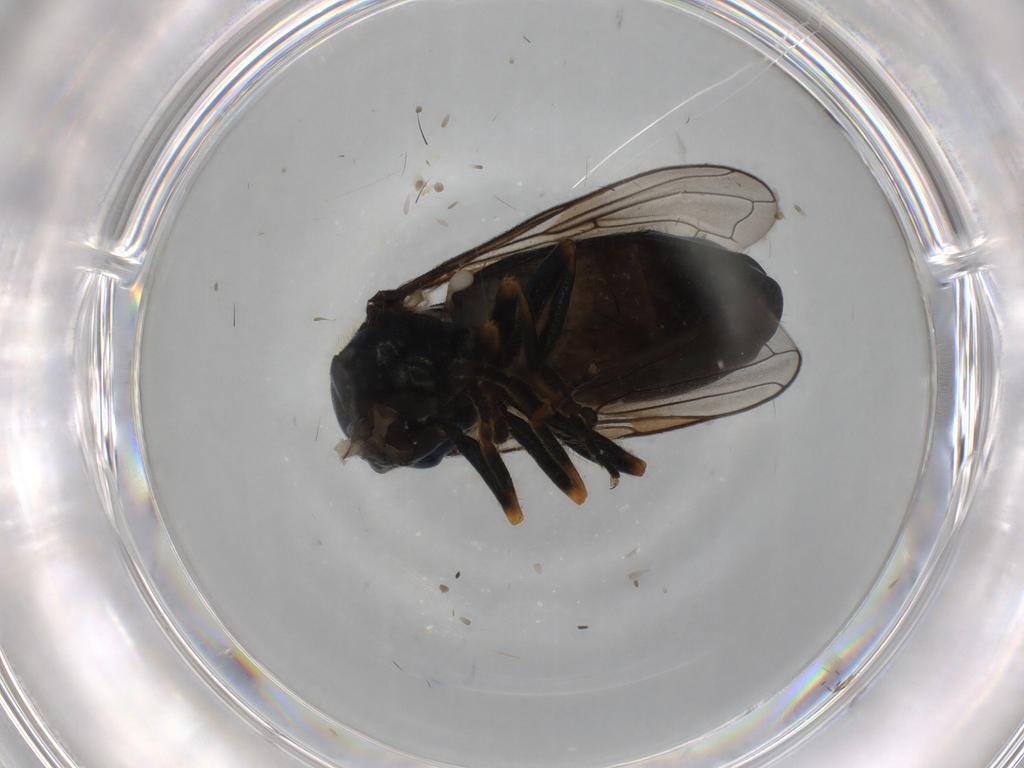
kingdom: Animalia
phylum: Arthropoda
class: Insecta
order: Diptera
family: Syrphidae
